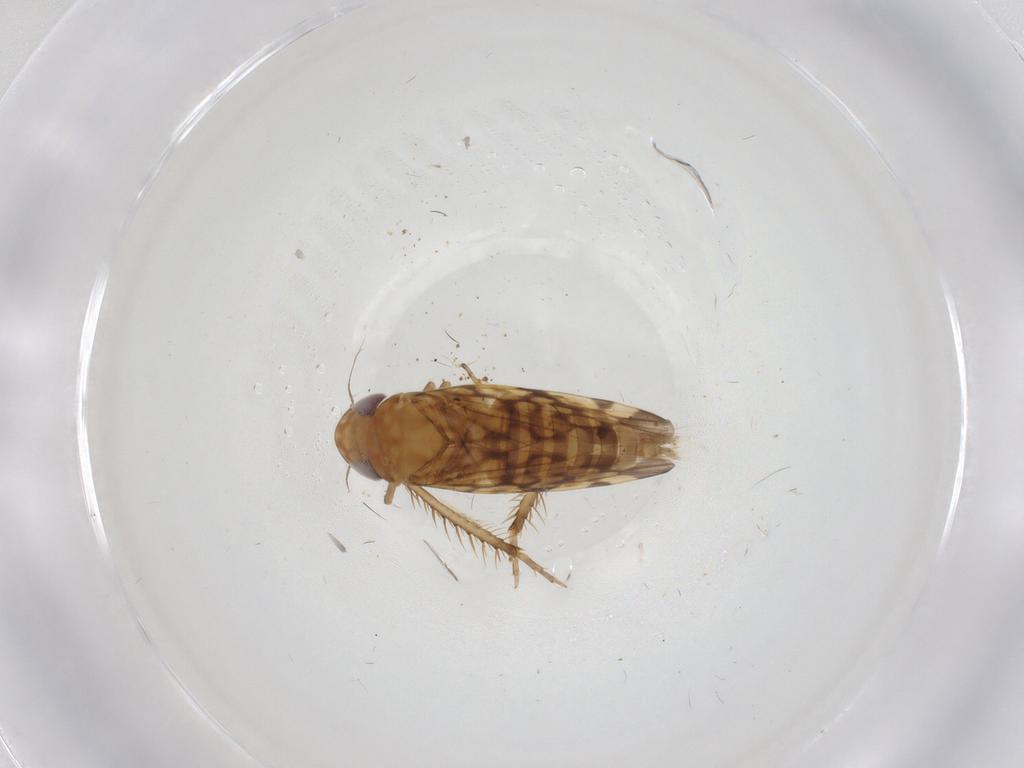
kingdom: Animalia
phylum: Arthropoda
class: Insecta
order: Hemiptera
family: Cicadellidae
